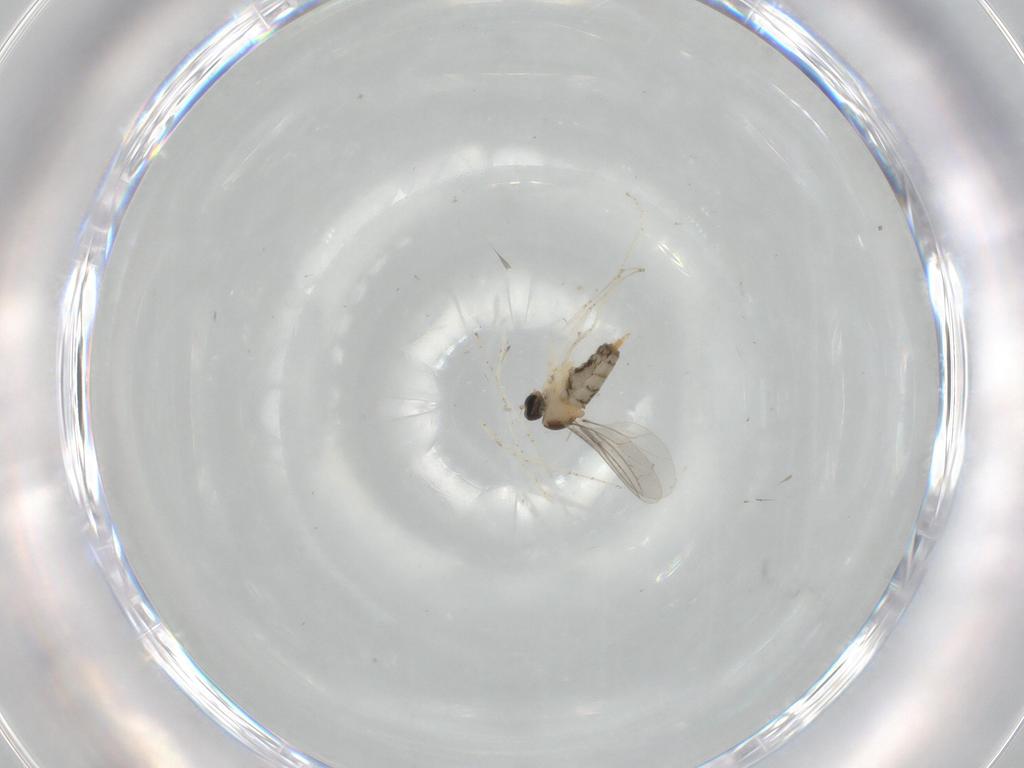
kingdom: Animalia
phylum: Arthropoda
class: Insecta
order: Diptera
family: Cecidomyiidae
